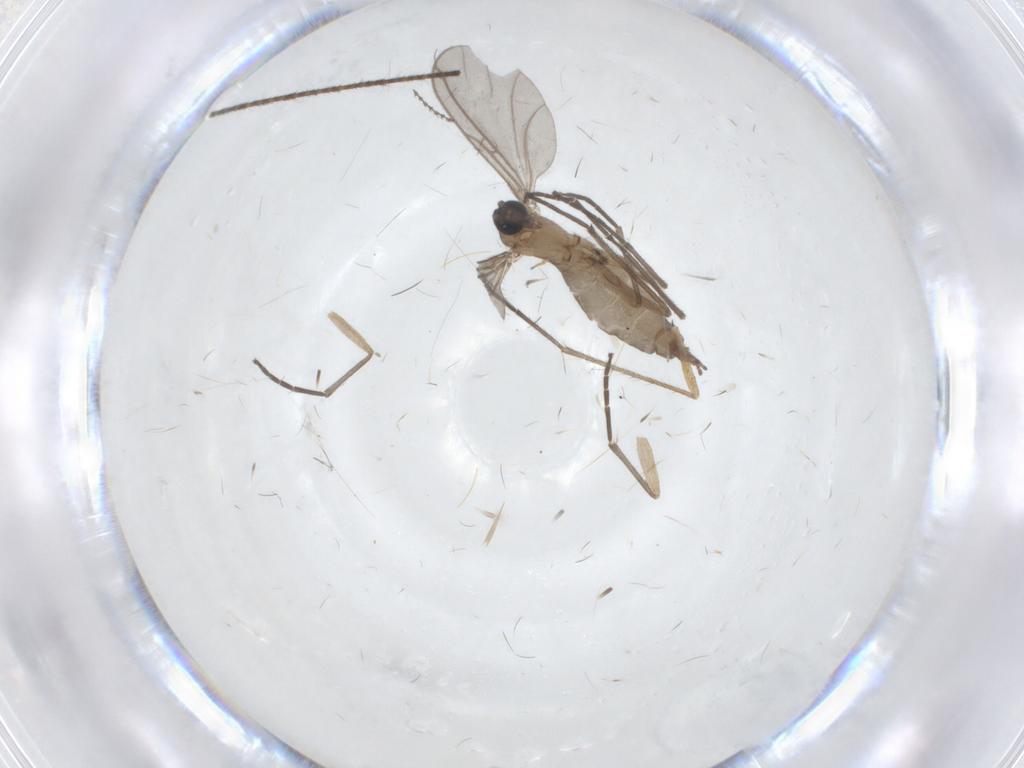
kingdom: Animalia
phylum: Arthropoda
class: Insecta
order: Diptera
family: Sciaridae
